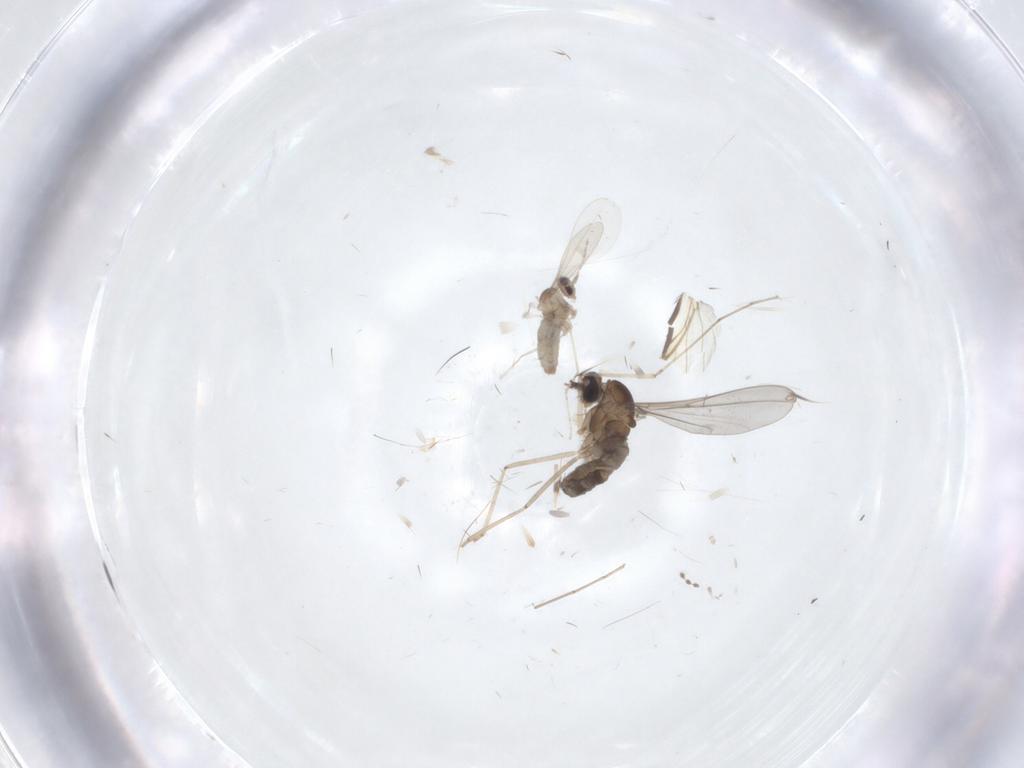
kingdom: Animalia
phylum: Arthropoda
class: Insecta
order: Diptera
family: Cecidomyiidae
